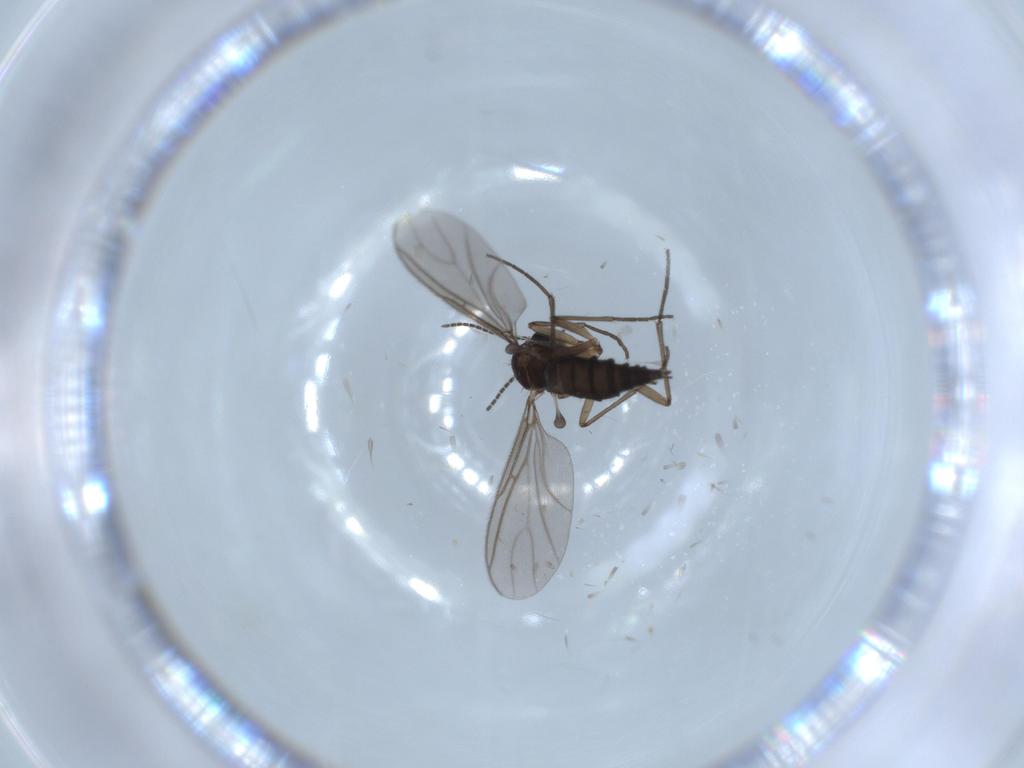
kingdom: Animalia
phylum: Arthropoda
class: Insecta
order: Diptera
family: Sciaridae
